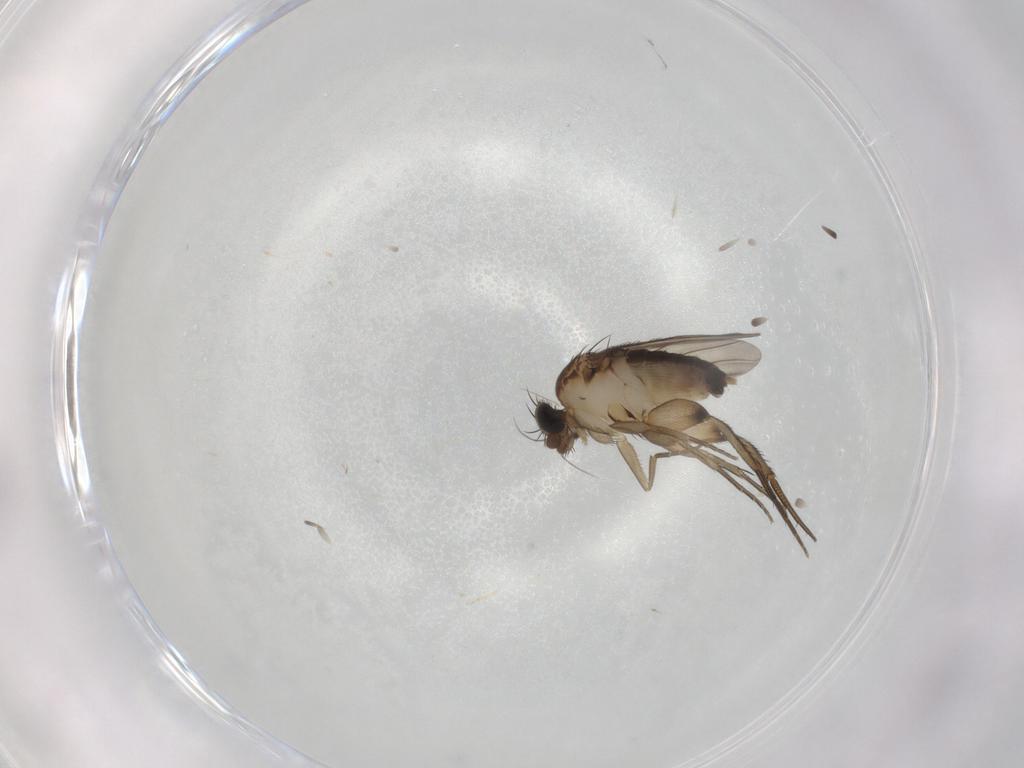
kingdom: Animalia
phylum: Arthropoda
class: Insecta
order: Diptera
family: Phoridae
